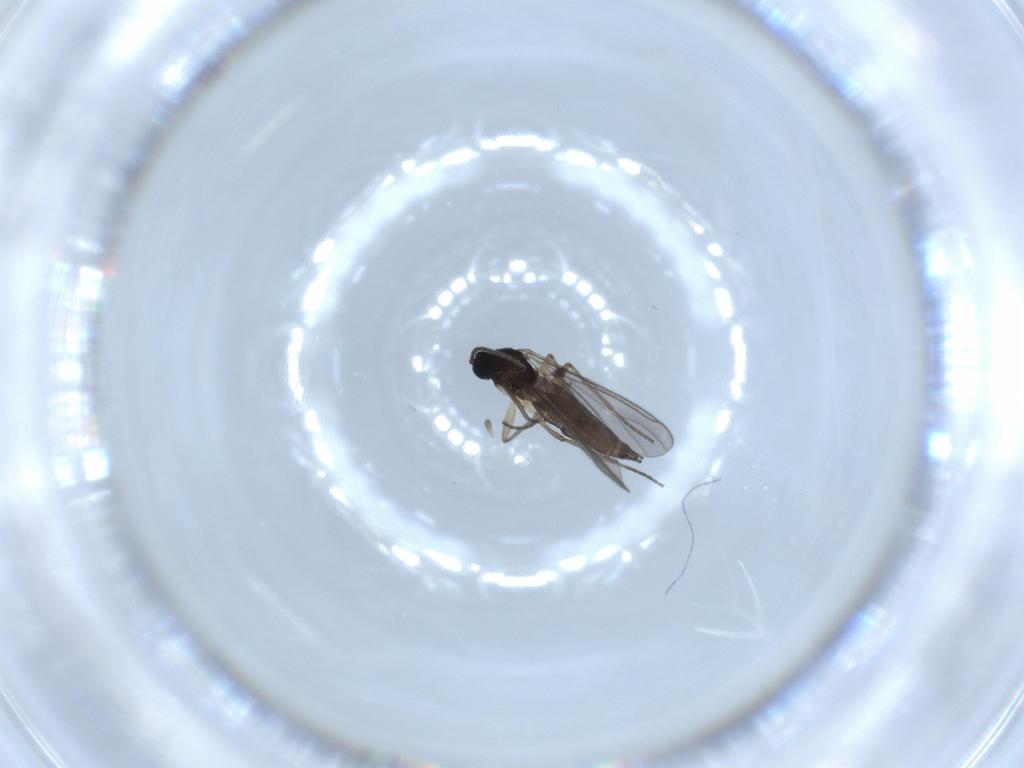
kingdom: Animalia
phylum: Arthropoda
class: Insecta
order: Diptera
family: Sciaridae
